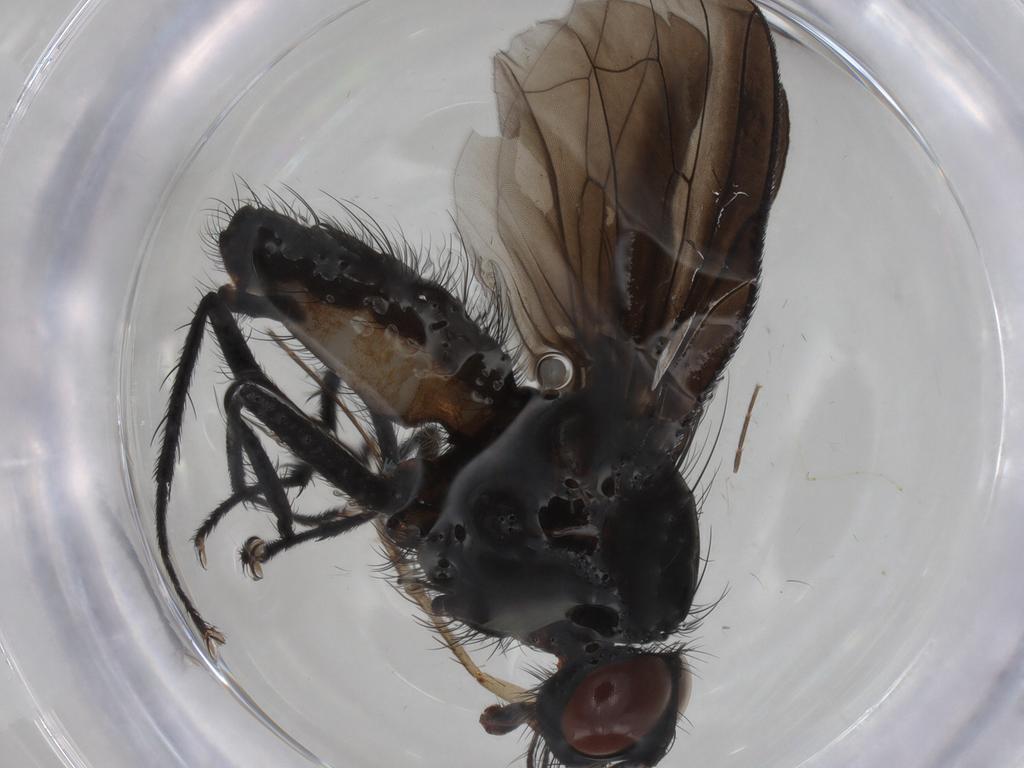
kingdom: Animalia
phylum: Arthropoda
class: Insecta
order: Diptera
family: Anthomyiidae
